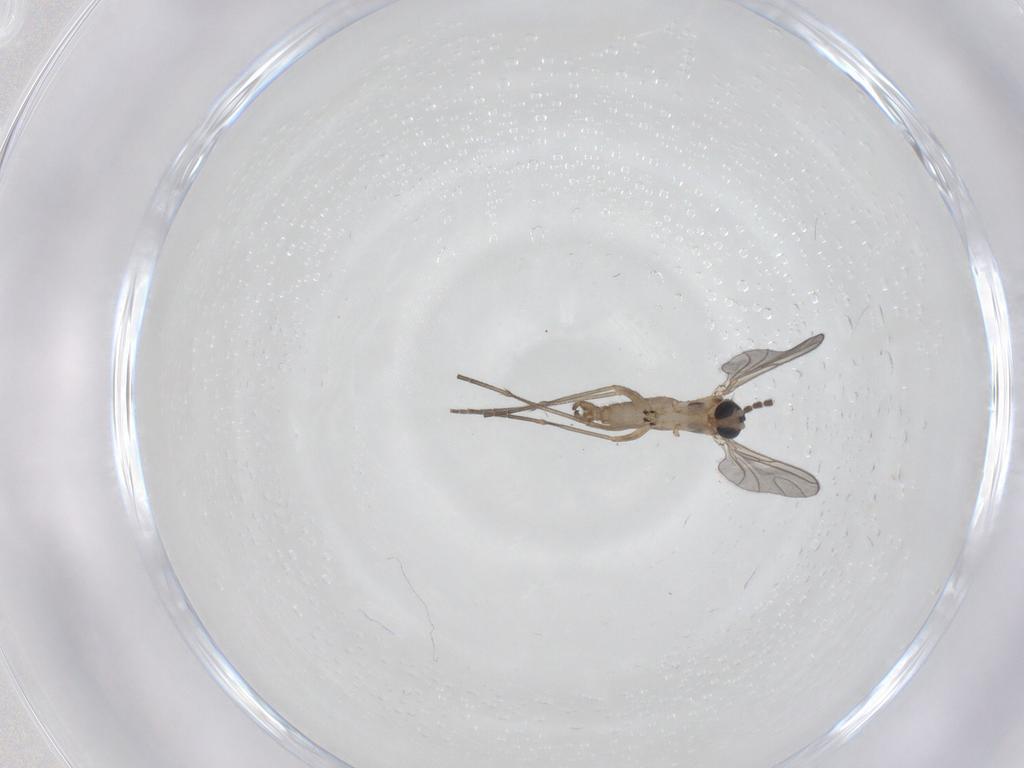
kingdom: Animalia
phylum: Arthropoda
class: Insecta
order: Diptera
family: Sciaridae
